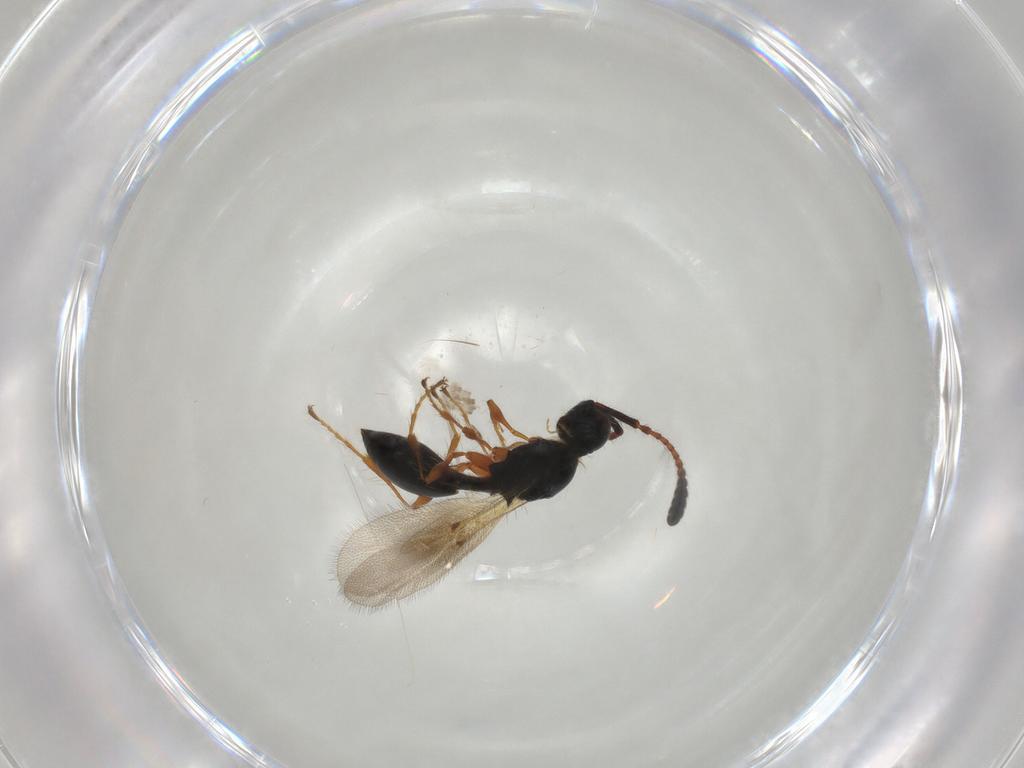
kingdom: Animalia
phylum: Arthropoda
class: Insecta
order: Hymenoptera
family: Diapriidae
